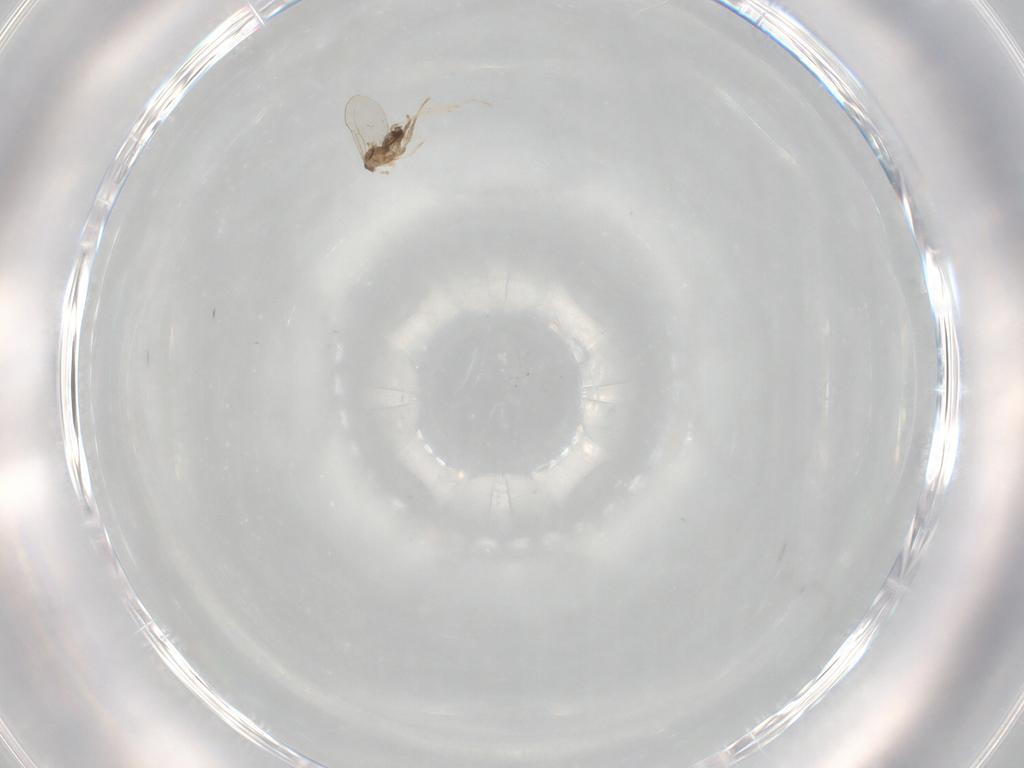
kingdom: Animalia
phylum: Arthropoda
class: Insecta
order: Diptera
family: Cecidomyiidae
